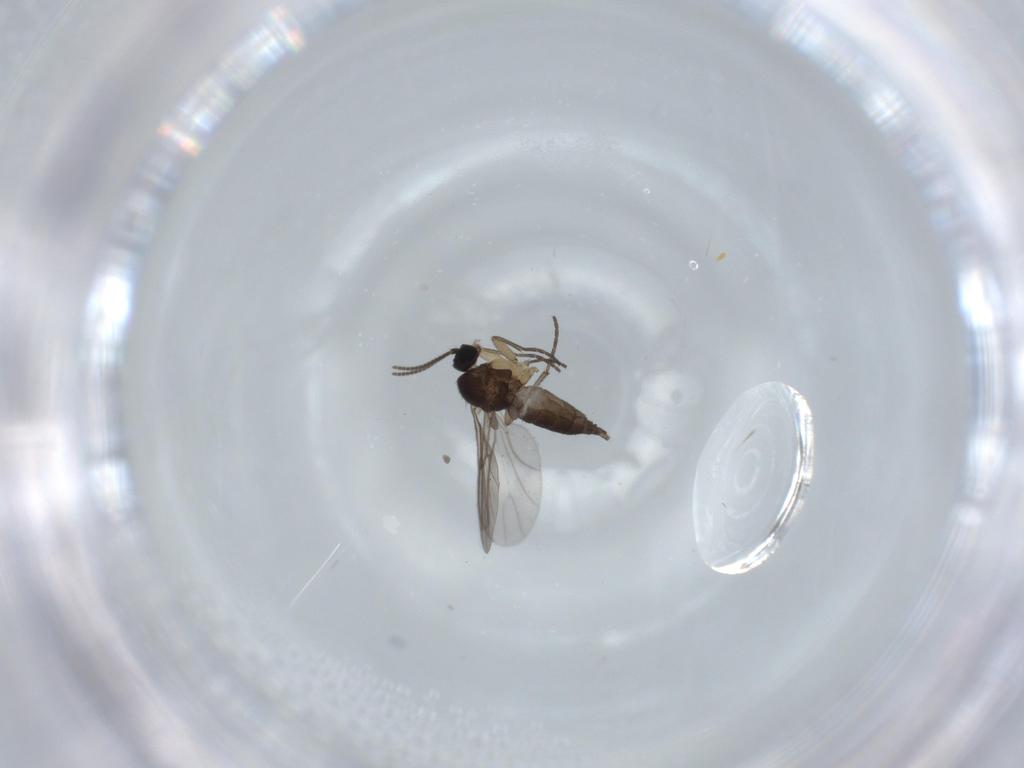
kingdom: Animalia
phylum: Arthropoda
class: Insecta
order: Diptera
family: Sciaridae
